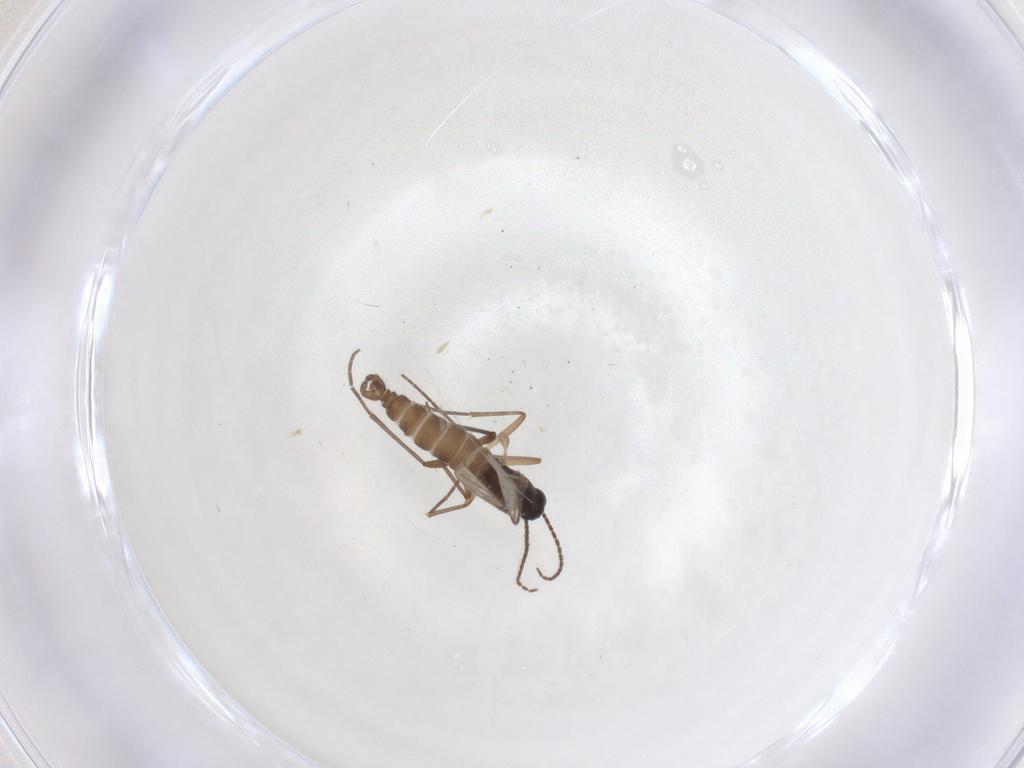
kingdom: Animalia
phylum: Arthropoda
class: Insecta
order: Diptera
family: Sciaridae
